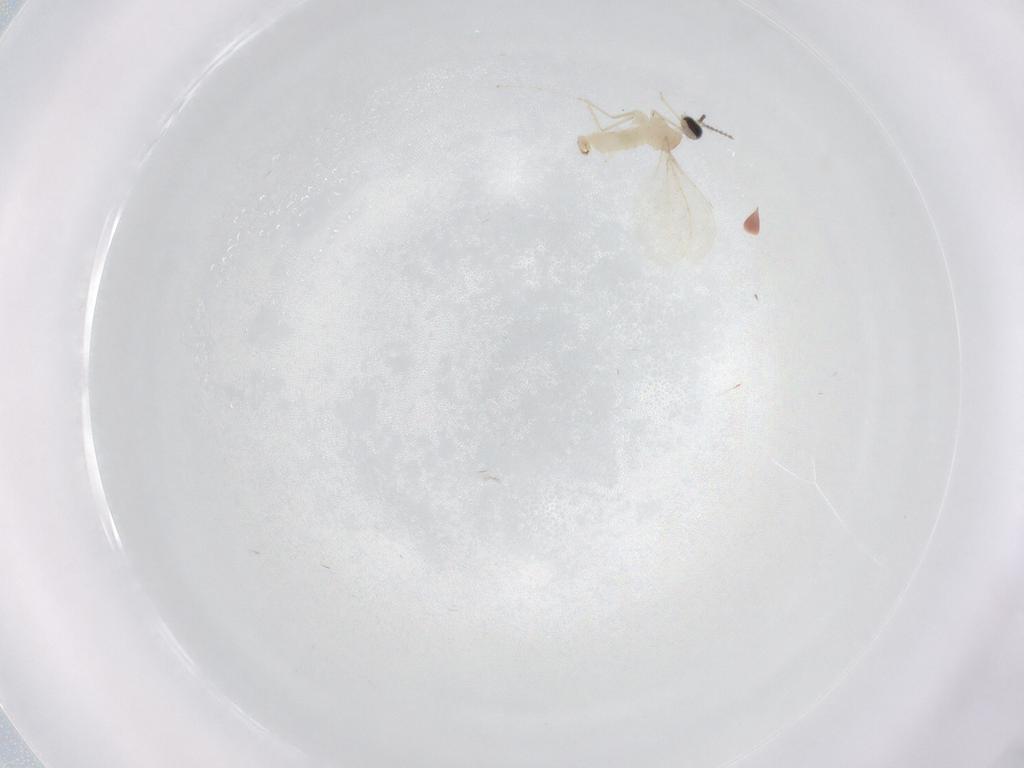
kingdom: Animalia
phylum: Arthropoda
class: Insecta
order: Diptera
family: Cecidomyiidae
